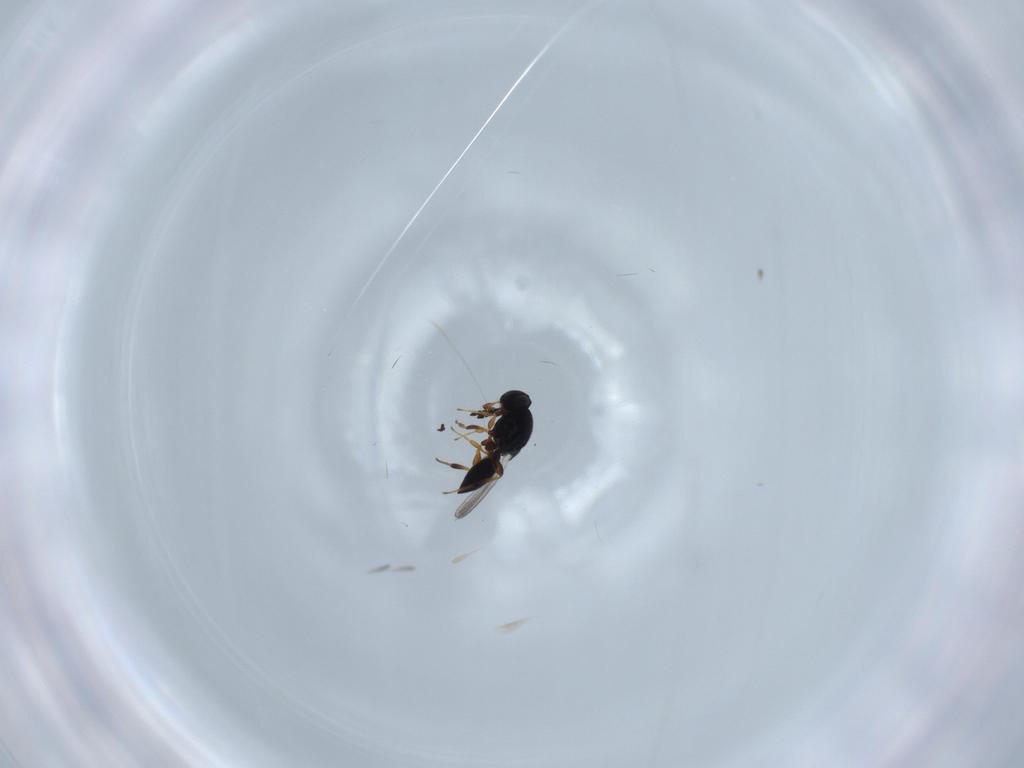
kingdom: Animalia
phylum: Arthropoda
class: Insecta
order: Hymenoptera
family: Platygastridae
